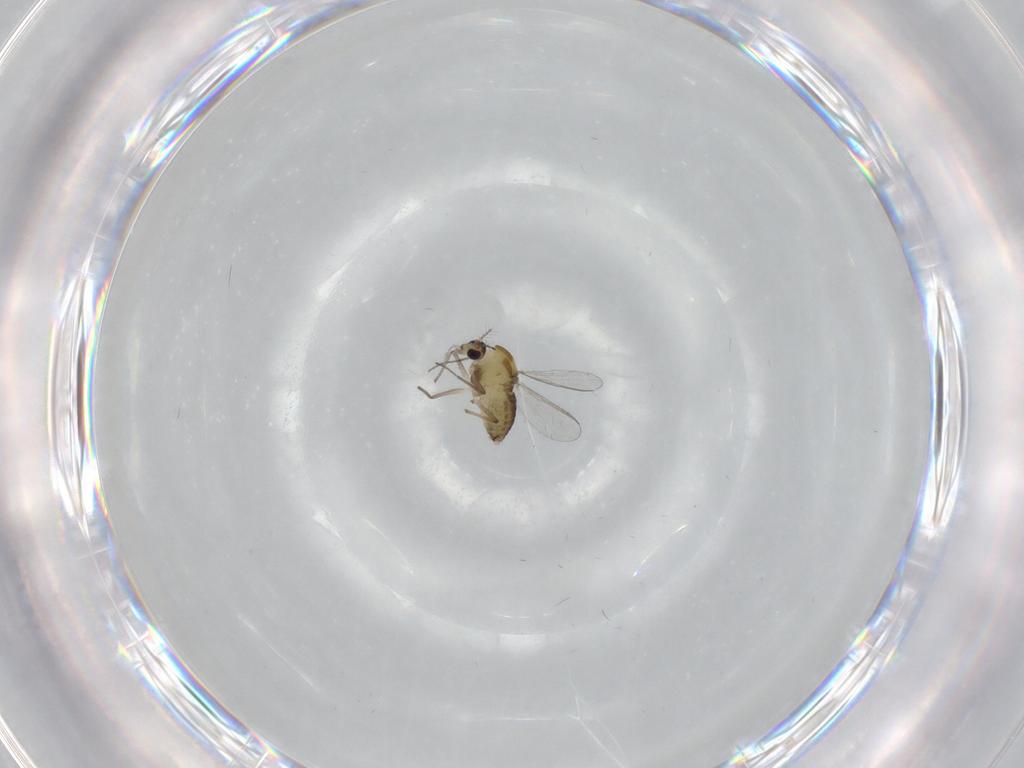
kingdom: Animalia
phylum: Arthropoda
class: Insecta
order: Diptera
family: Chironomidae
